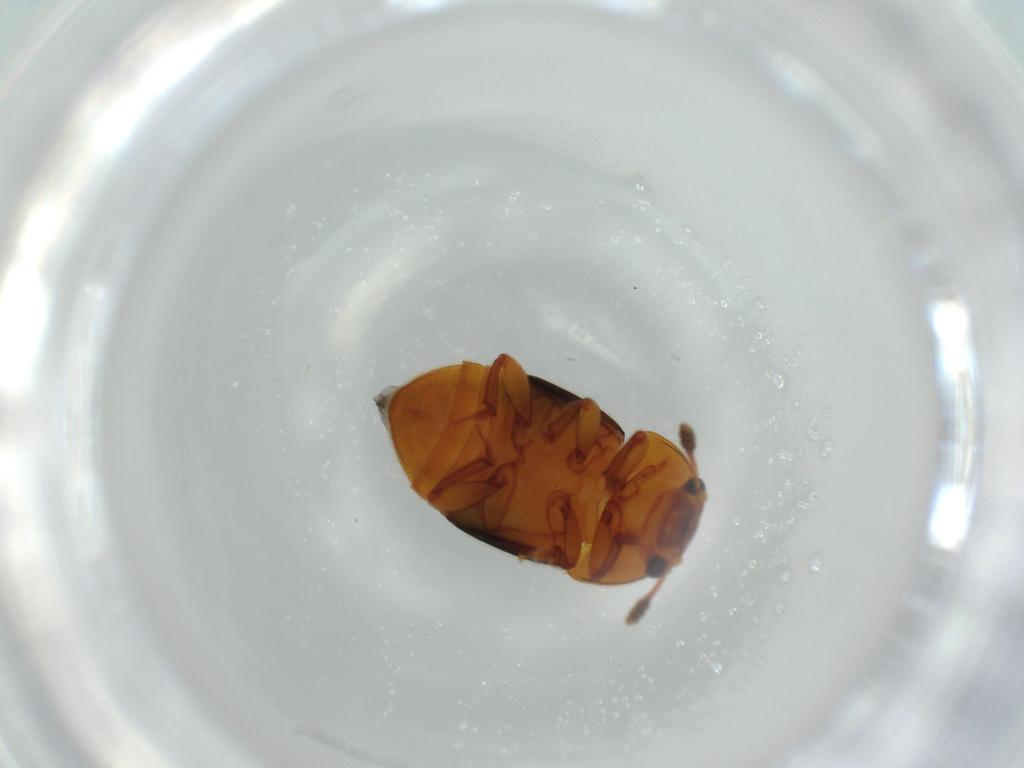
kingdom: Animalia
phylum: Arthropoda
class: Insecta
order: Coleoptera
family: Nitidulidae
